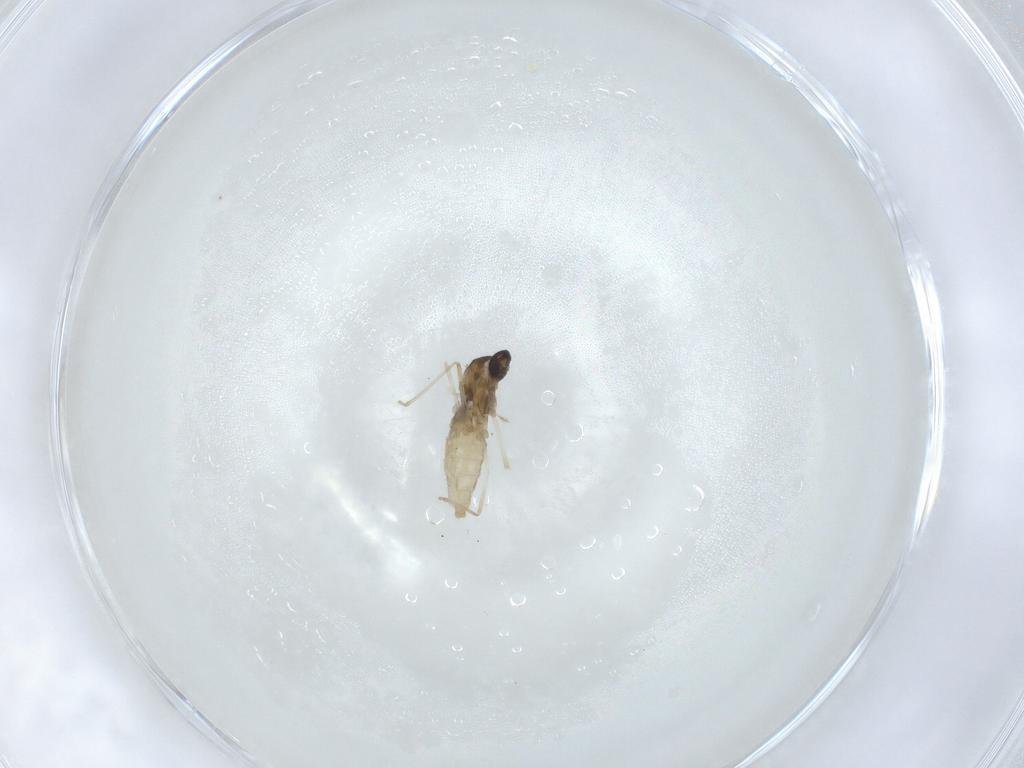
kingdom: Animalia
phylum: Arthropoda
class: Insecta
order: Diptera
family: Cecidomyiidae
